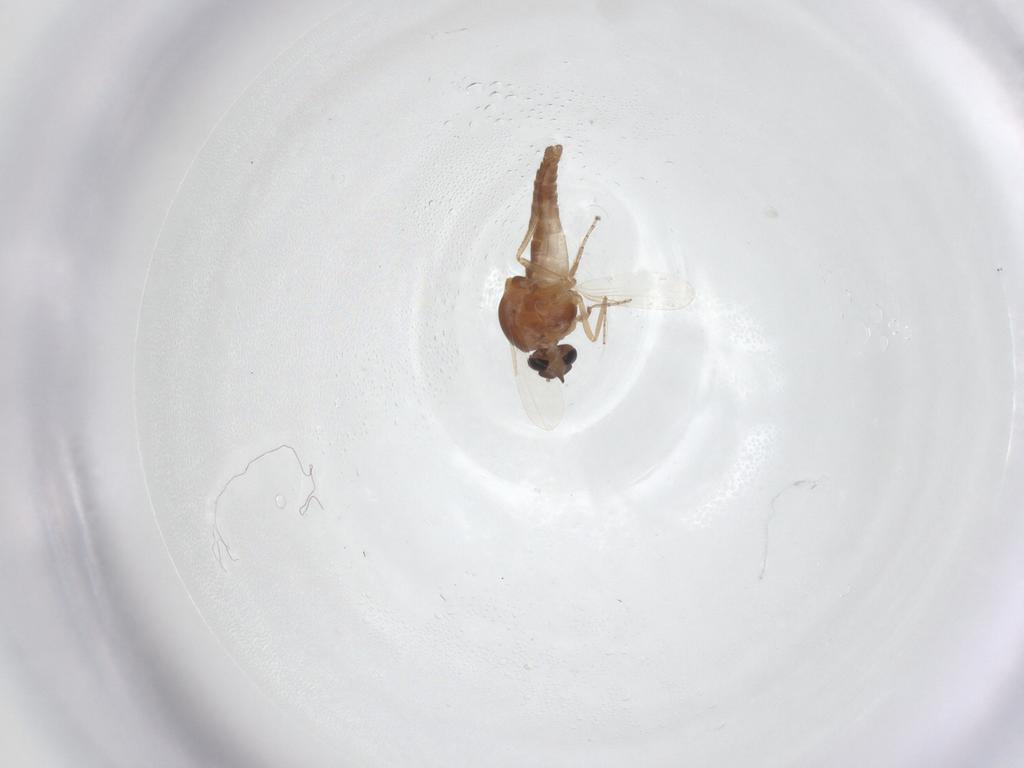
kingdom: Animalia
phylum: Arthropoda
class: Insecta
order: Diptera
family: Ceratopogonidae
